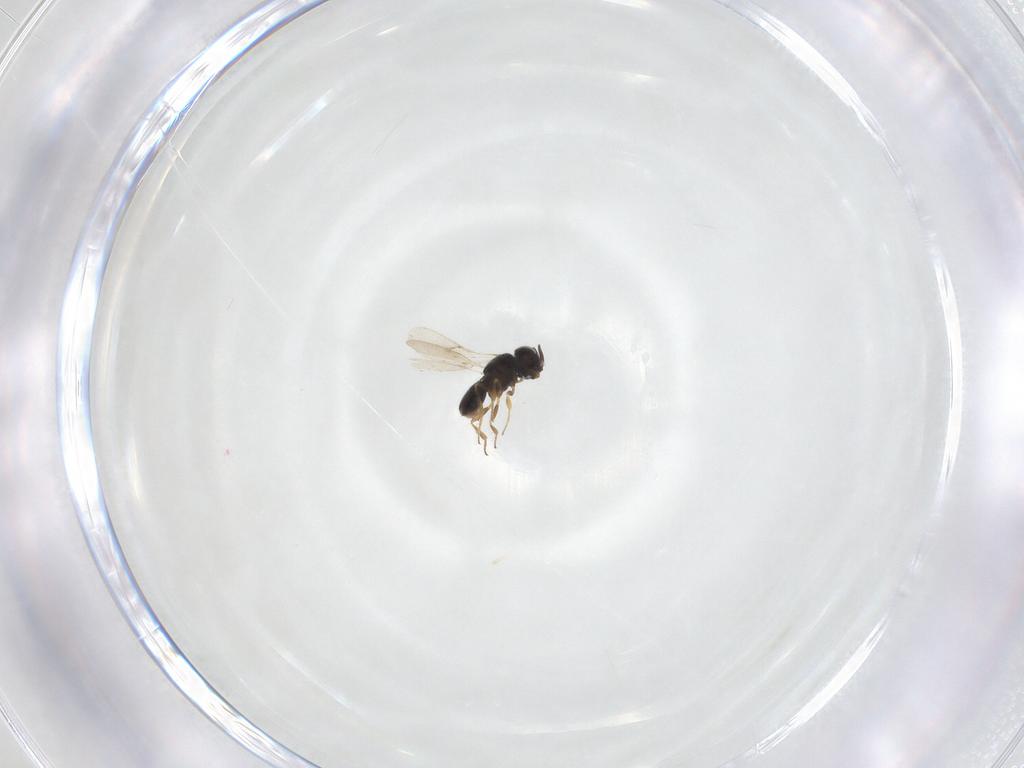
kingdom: Animalia
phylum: Arthropoda
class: Insecta
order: Hymenoptera
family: Scelionidae
